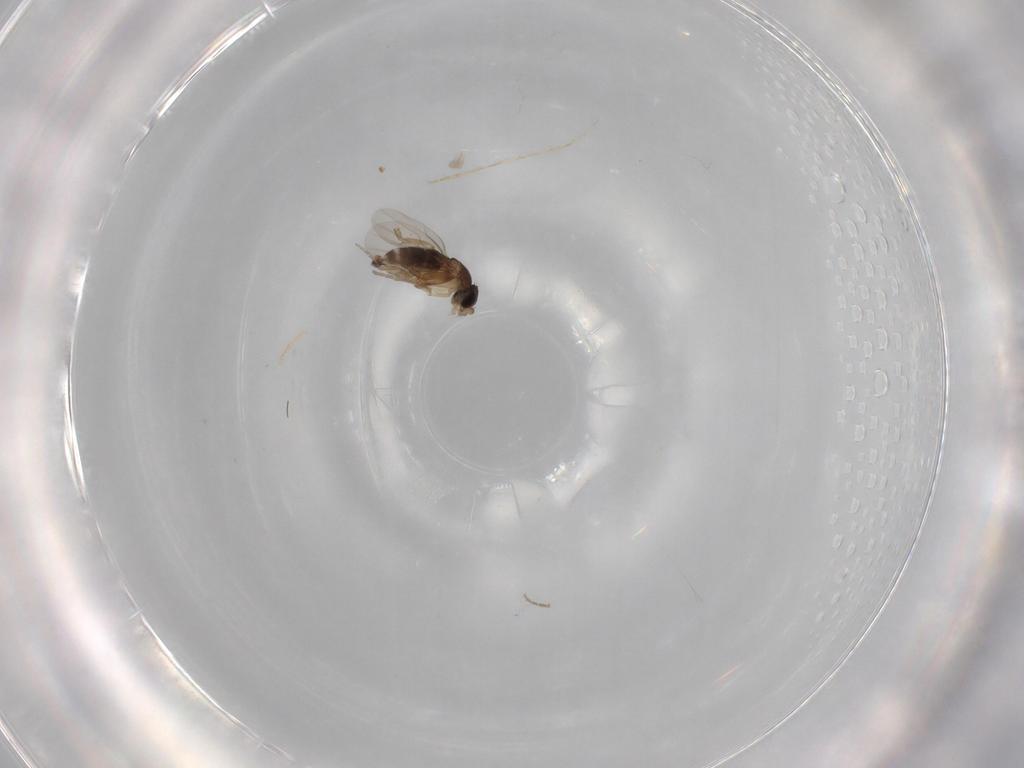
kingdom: Animalia
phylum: Arthropoda
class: Insecta
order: Diptera
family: Phoridae
